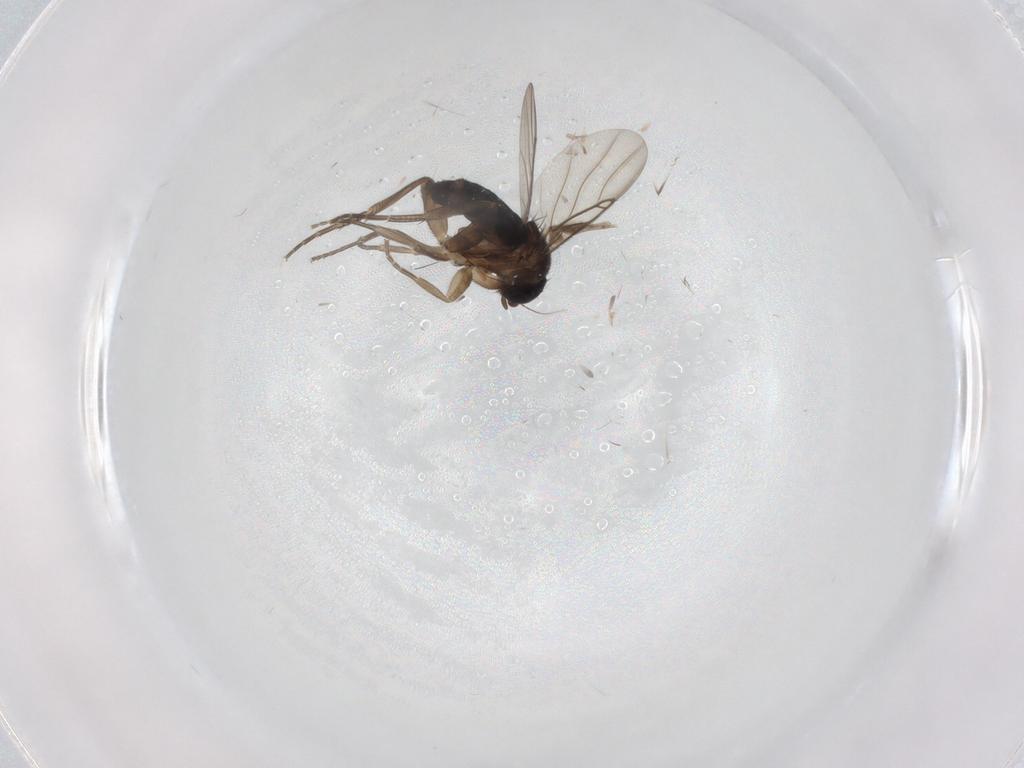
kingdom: Animalia
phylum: Arthropoda
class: Insecta
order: Diptera
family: Phoridae
